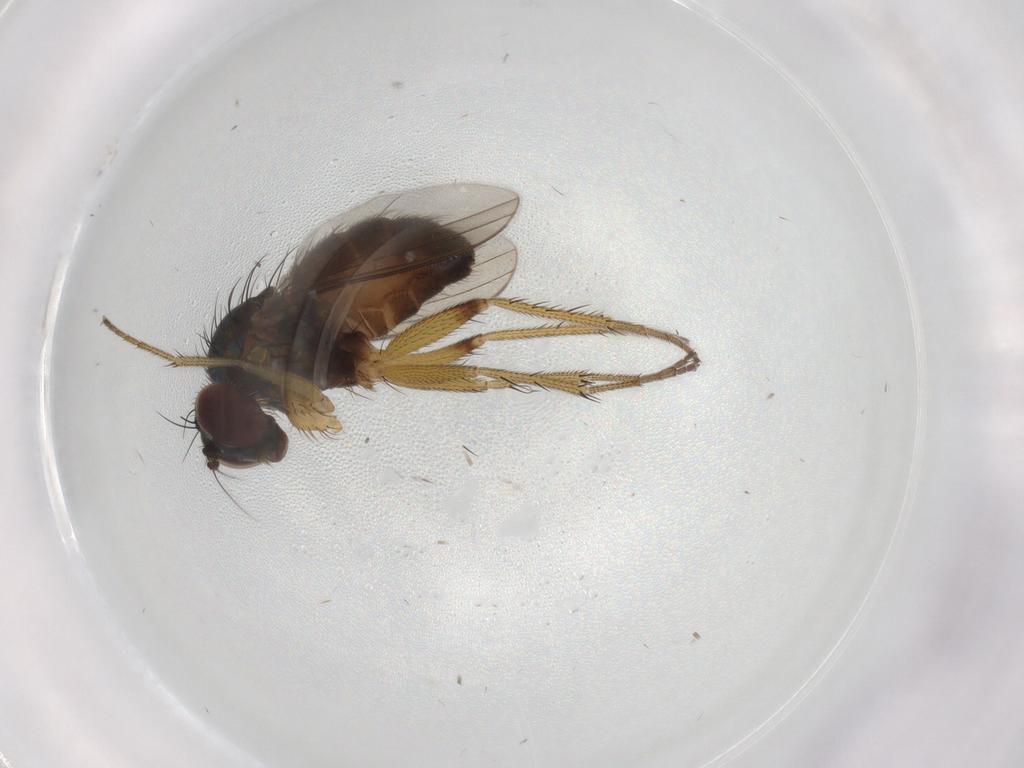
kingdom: Animalia
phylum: Arthropoda
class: Insecta
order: Diptera
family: Dolichopodidae
